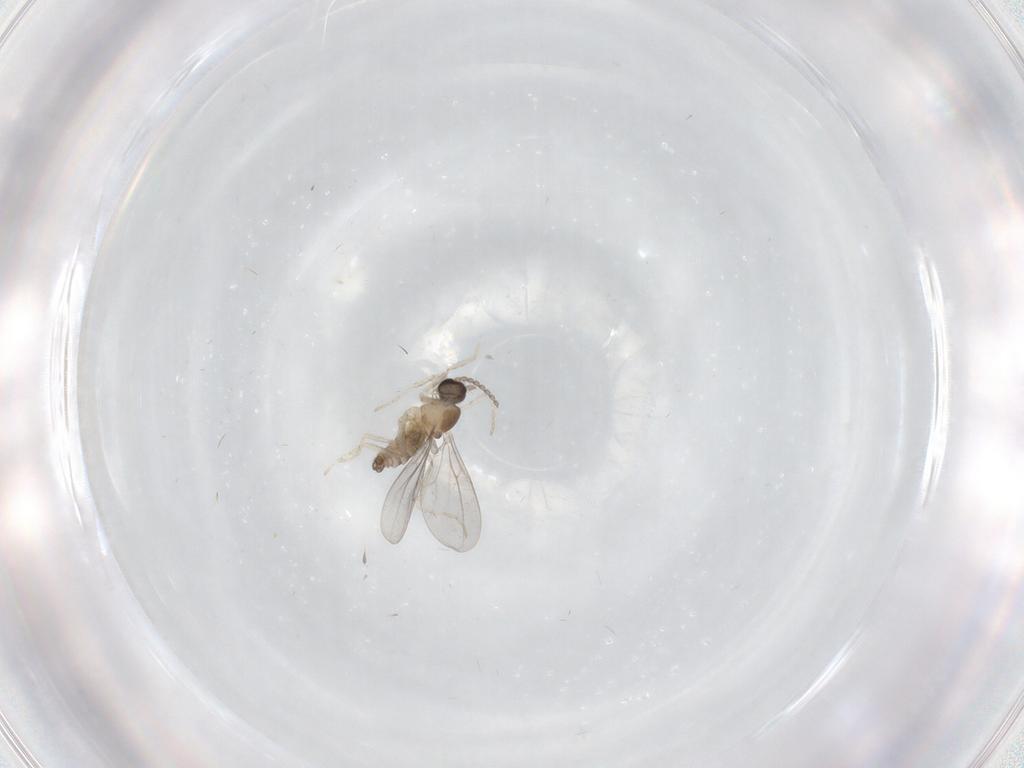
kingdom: Animalia
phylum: Arthropoda
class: Insecta
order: Diptera
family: Cecidomyiidae
